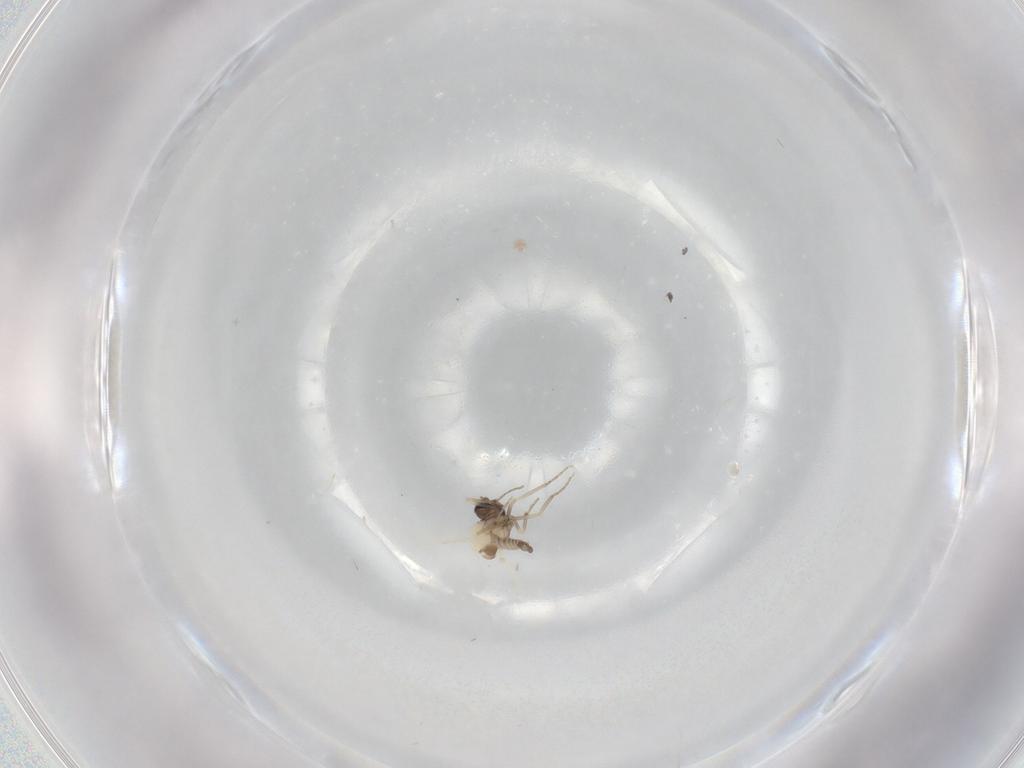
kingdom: Animalia
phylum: Arthropoda
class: Insecta
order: Diptera
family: Ceratopogonidae
